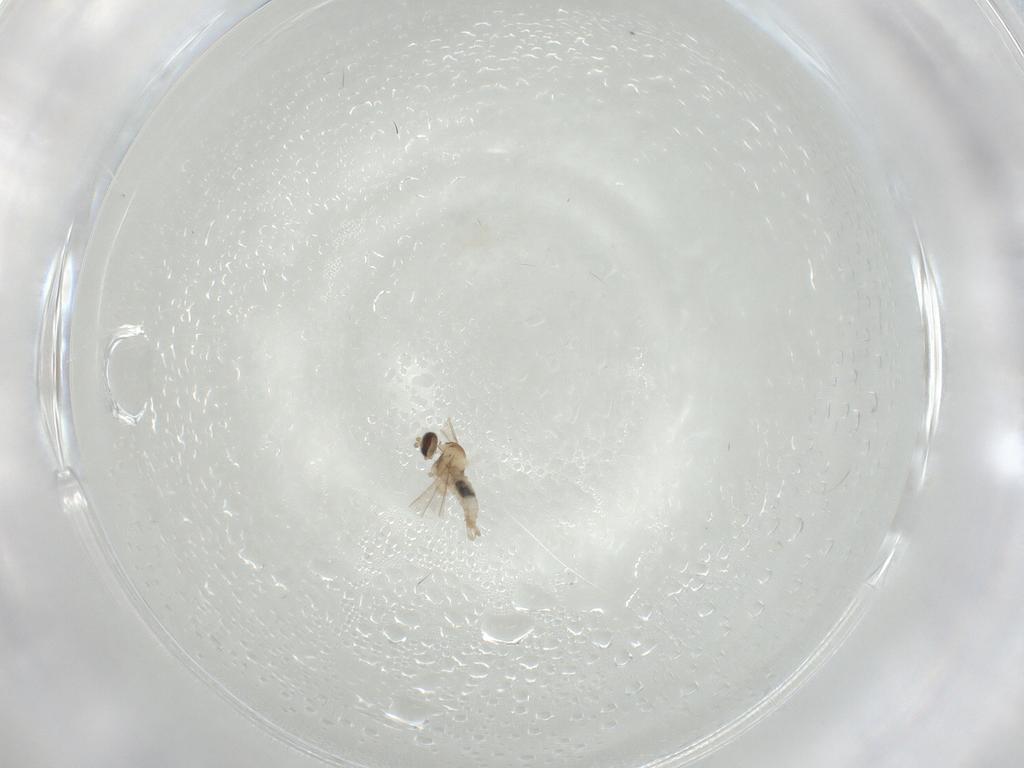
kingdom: Animalia
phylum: Arthropoda
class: Insecta
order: Diptera
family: Cecidomyiidae
